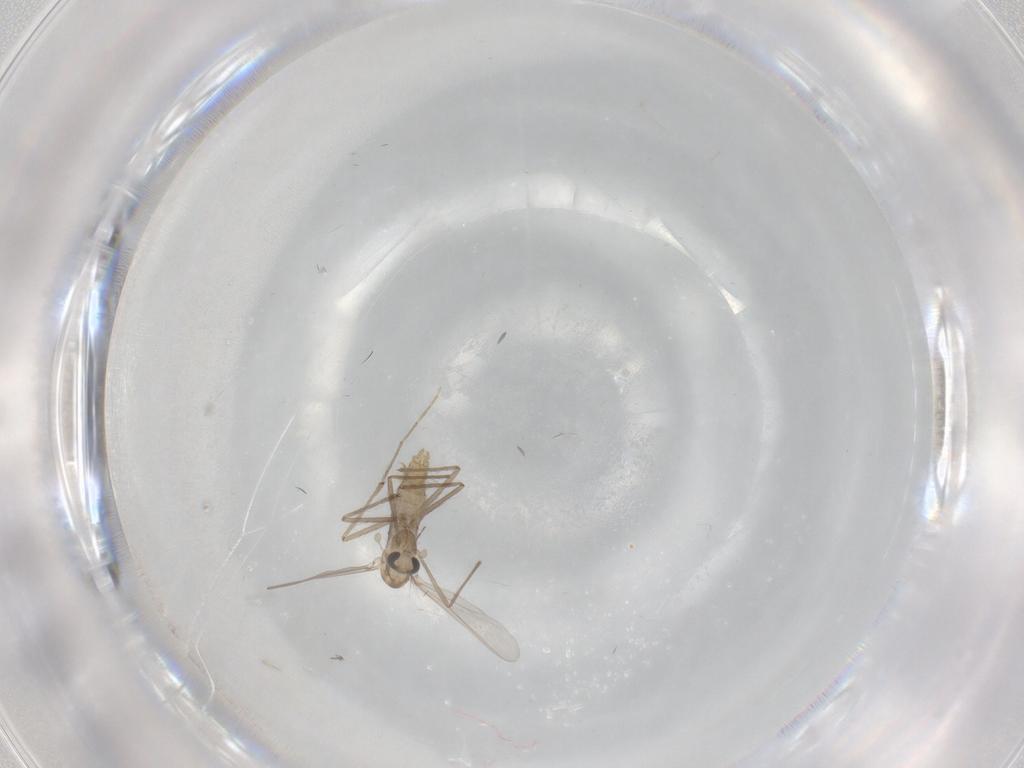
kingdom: Animalia
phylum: Arthropoda
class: Insecta
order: Diptera
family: Chironomidae
